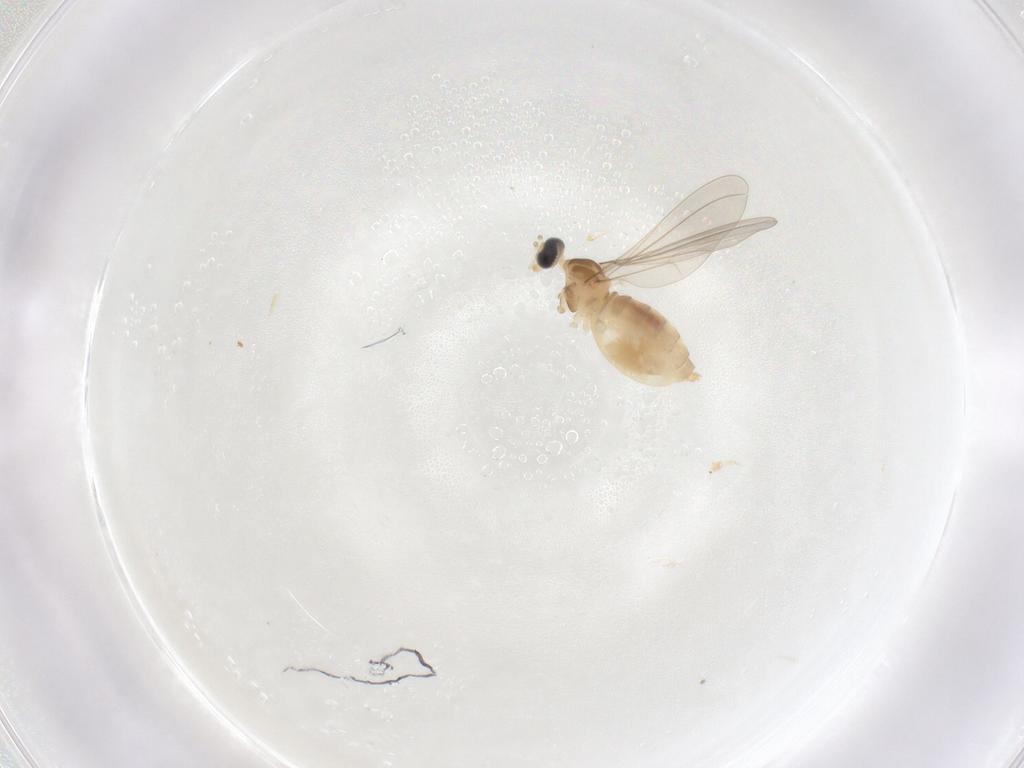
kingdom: Animalia
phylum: Arthropoda
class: Insecta
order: Diptera
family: Cecidomyiidae
